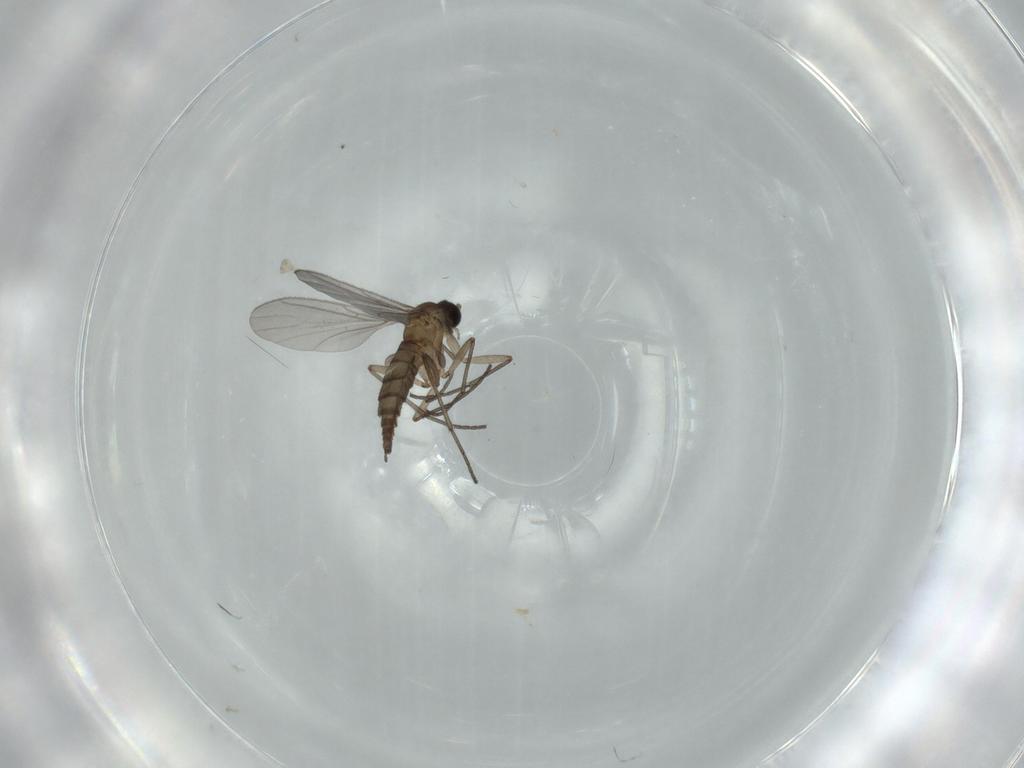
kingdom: Animalia
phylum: Arthropoda
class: Insecta
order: Diptera
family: Sciaridae
